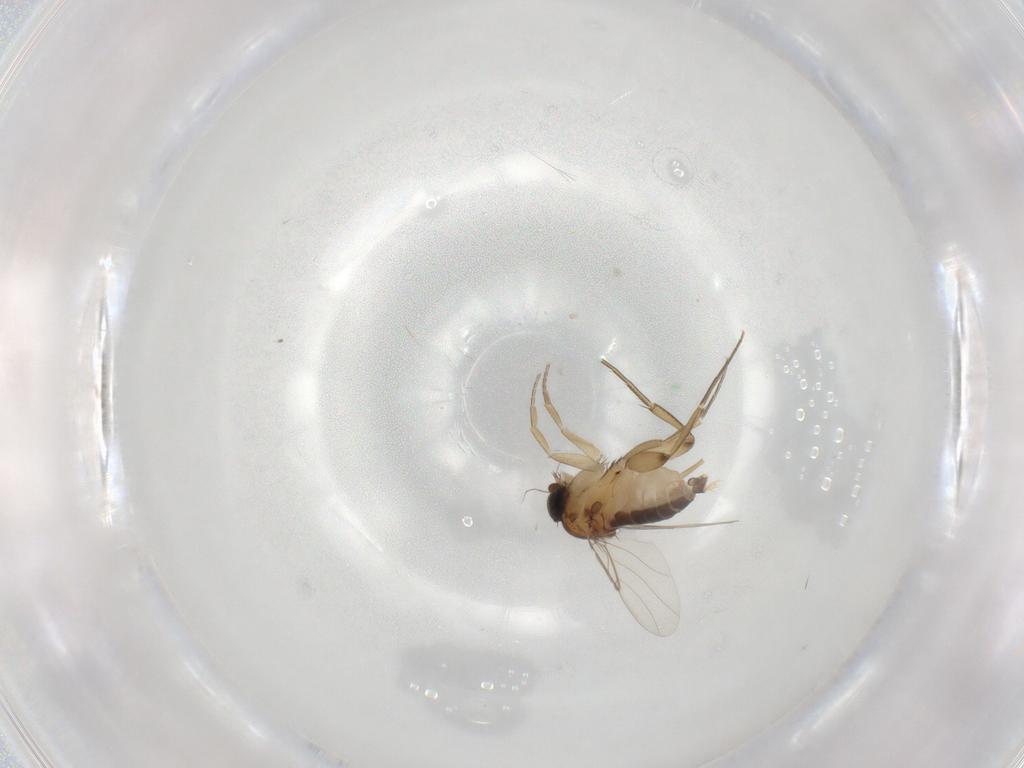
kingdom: Animalia
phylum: Arthropoda
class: Insecta
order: Diptera
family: Phoridae
